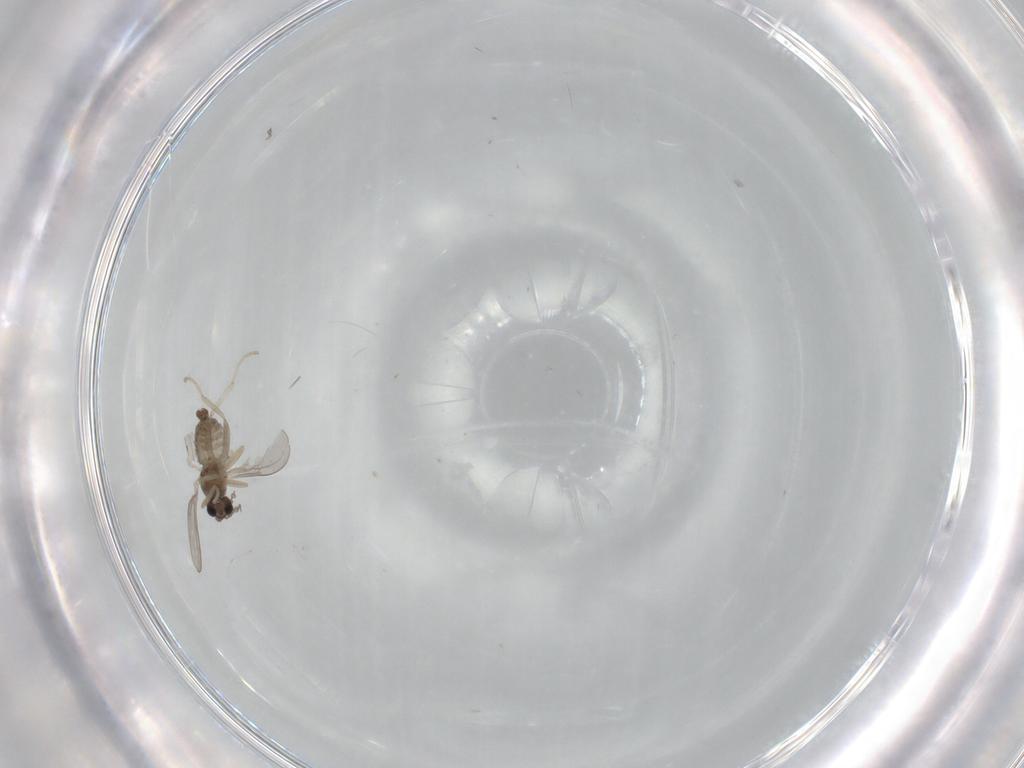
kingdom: Animalia
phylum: Arthropoda
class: Insecta
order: Diptera
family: Cecidomyiidae
